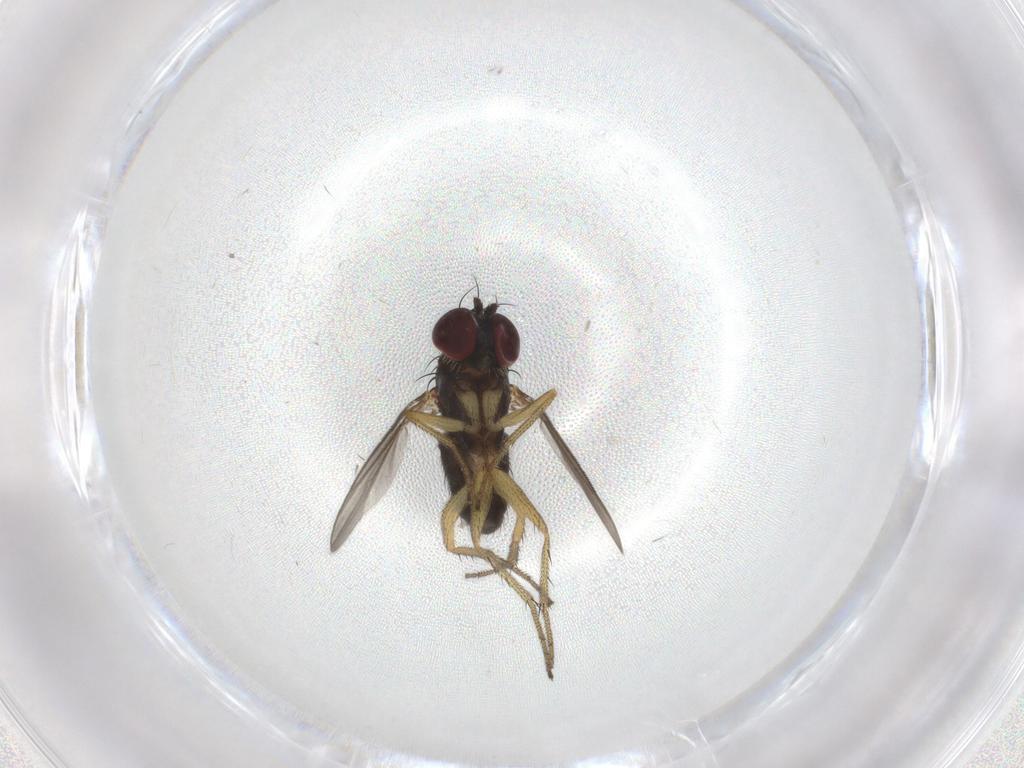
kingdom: Animalia
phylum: Arthropoda
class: Insecta
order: Diptera
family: Dolichopodidae
